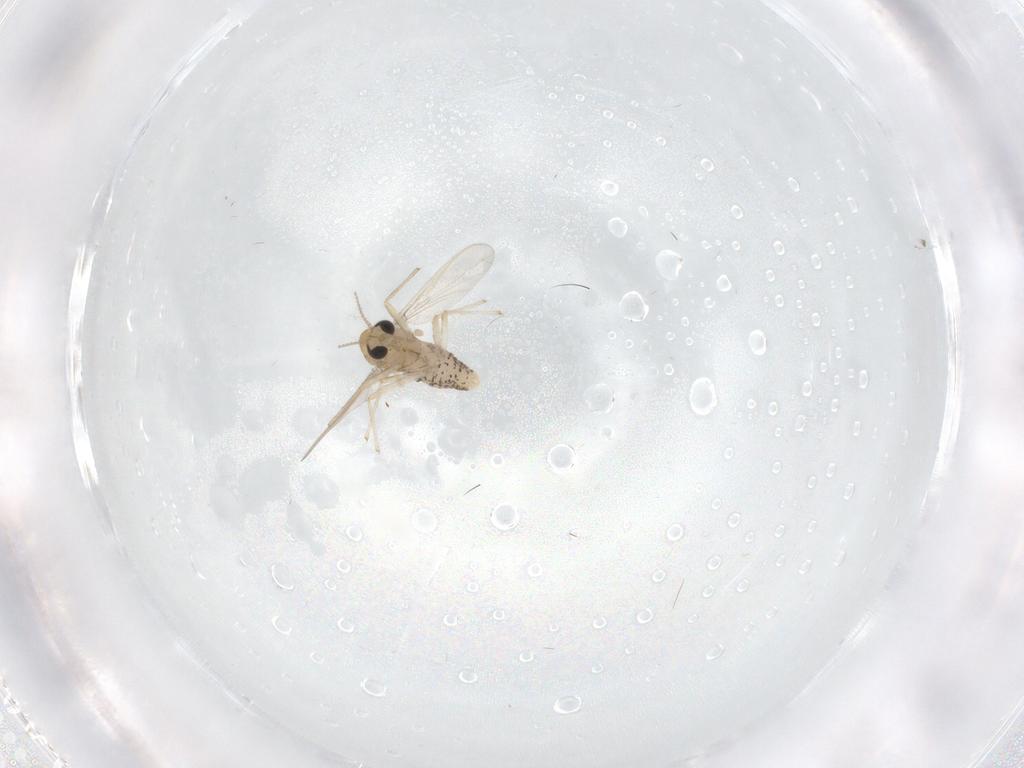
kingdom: Animalia
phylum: Arthropoda
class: Insecta
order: Diptera
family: Chironomidae
